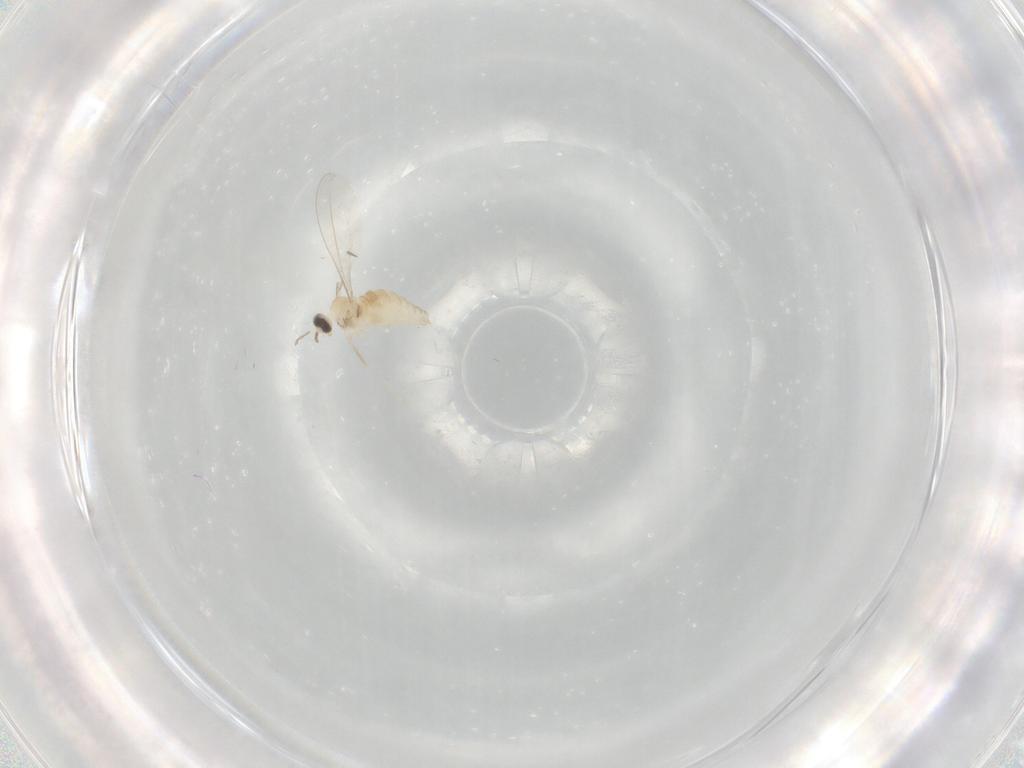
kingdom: Animalia
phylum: Arthropoda
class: Insecta
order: Diptera
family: Cecidomyiidae
